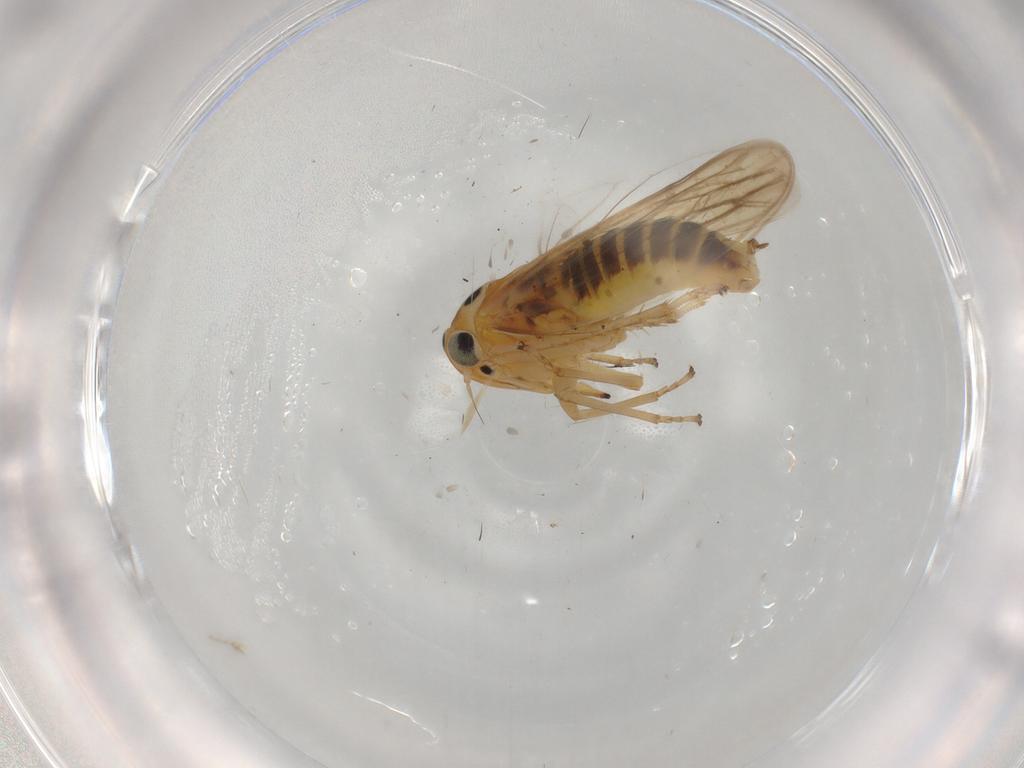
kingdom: Animalia
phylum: Arthropoda
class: Insecta
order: Hemiptera
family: Cicadellidae
